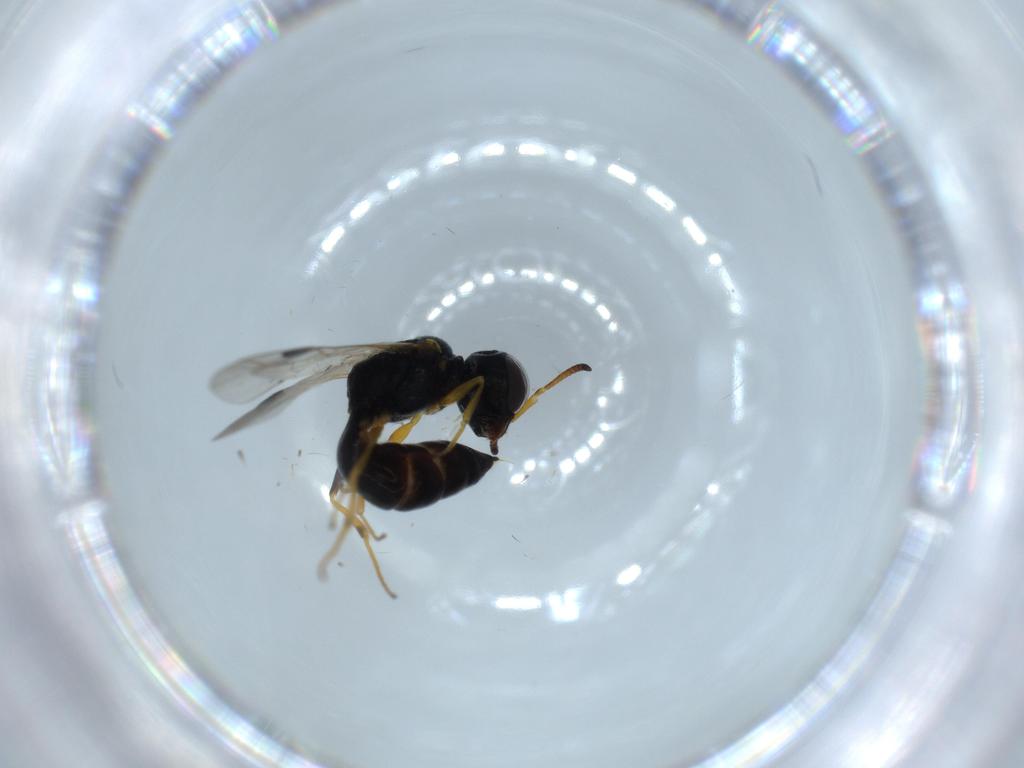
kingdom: Animalia
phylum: Arthropoda
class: Insecta
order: Hymenoptera
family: Pemphredonidae
